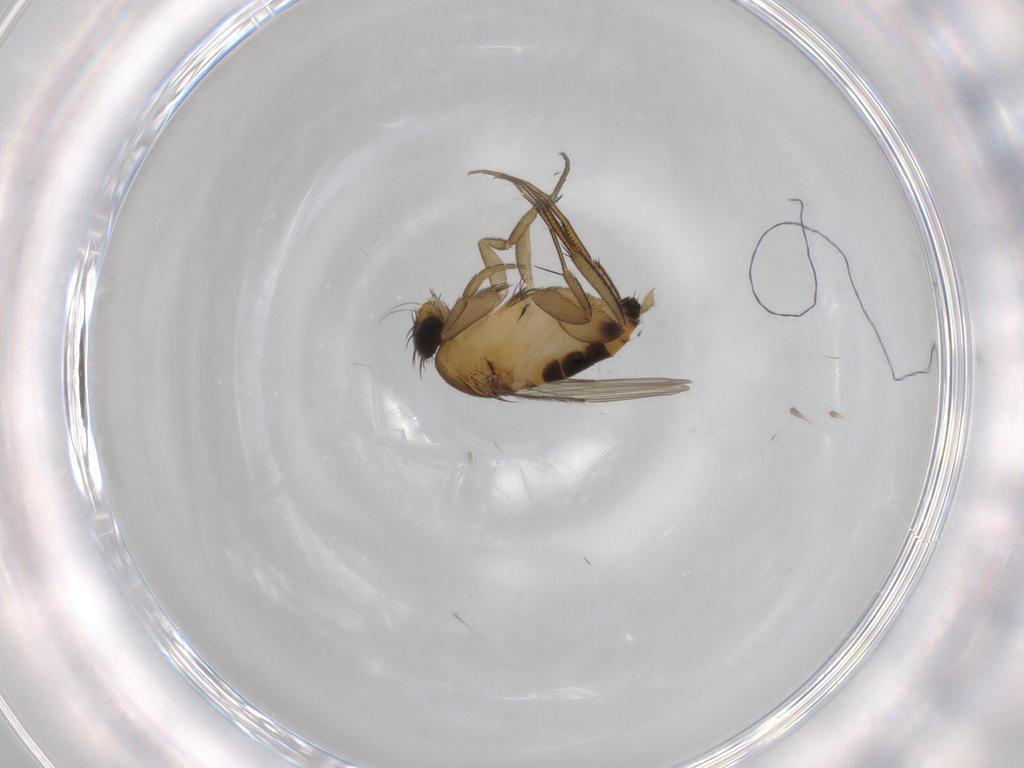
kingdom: Animalia
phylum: Arthropoda
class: Insecta
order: Diptera
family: Phoridae
